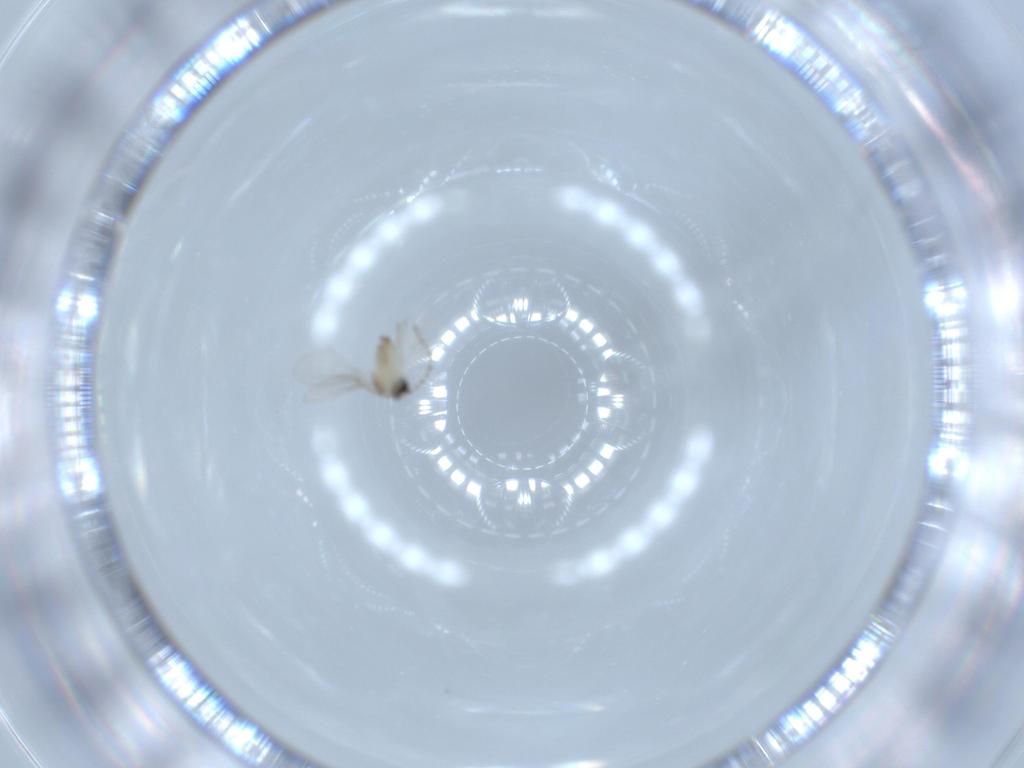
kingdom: Animalia
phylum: Arthropoda
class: Insecta
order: Diptera
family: Cecidomyiidae
